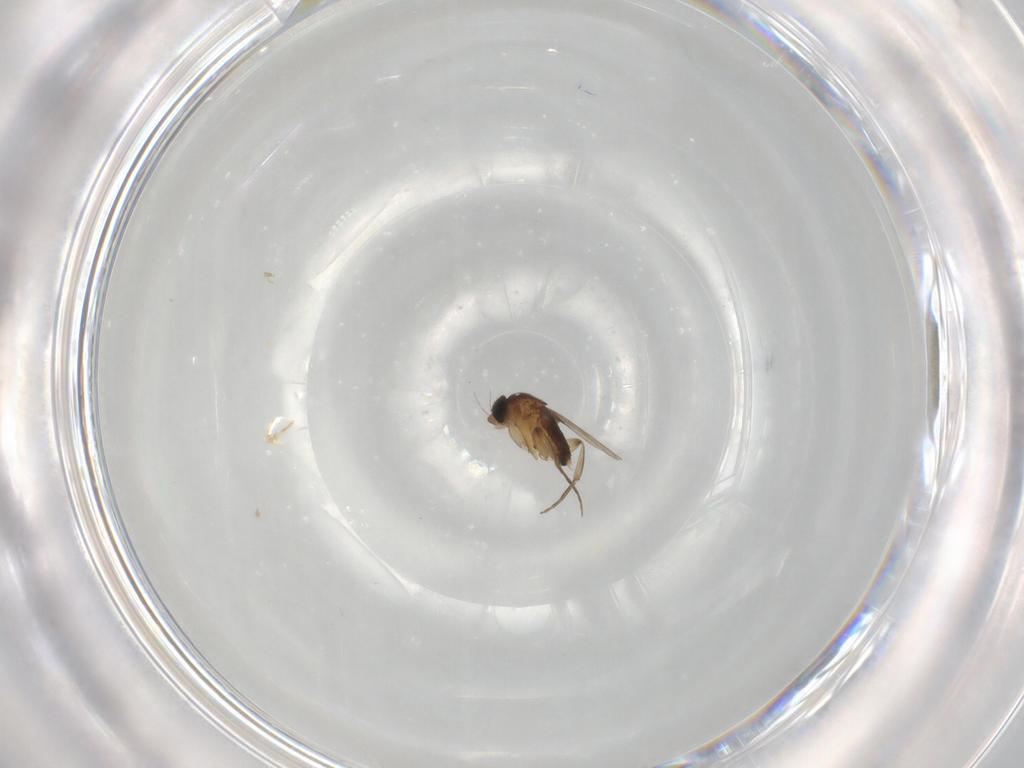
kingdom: Animalia
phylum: Arthropoda
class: Insecta
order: Diptera
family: Phoridae
